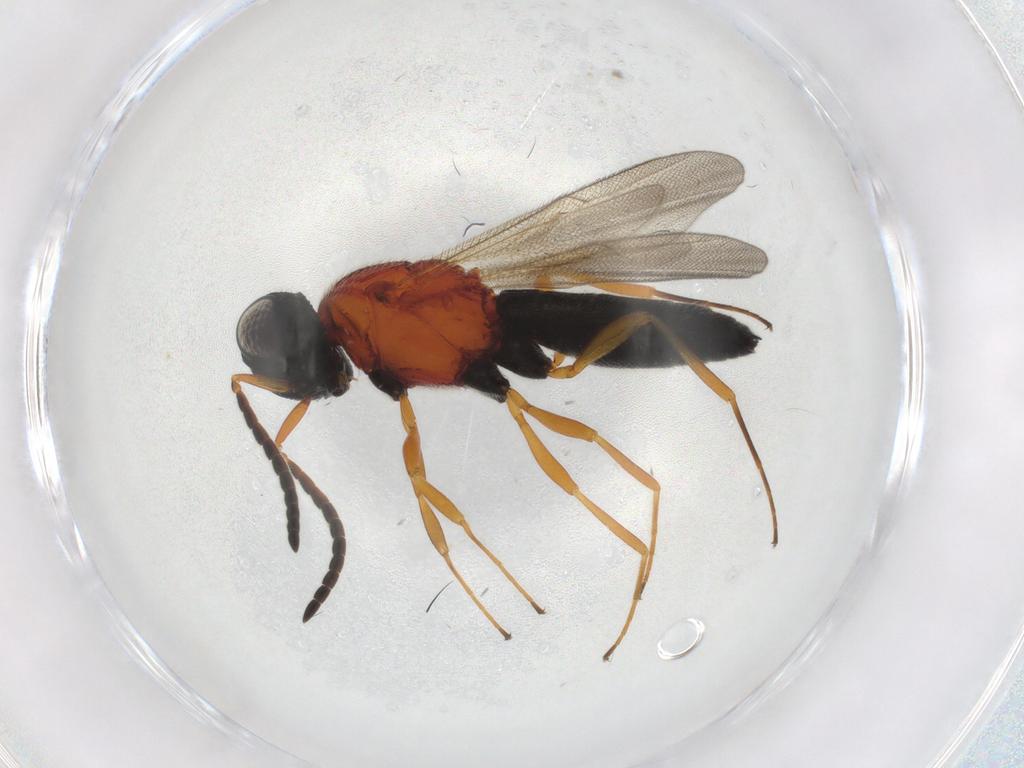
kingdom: Animalia
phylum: Arthropoda
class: Insecta
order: Hymenoptera
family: Scelionidae
